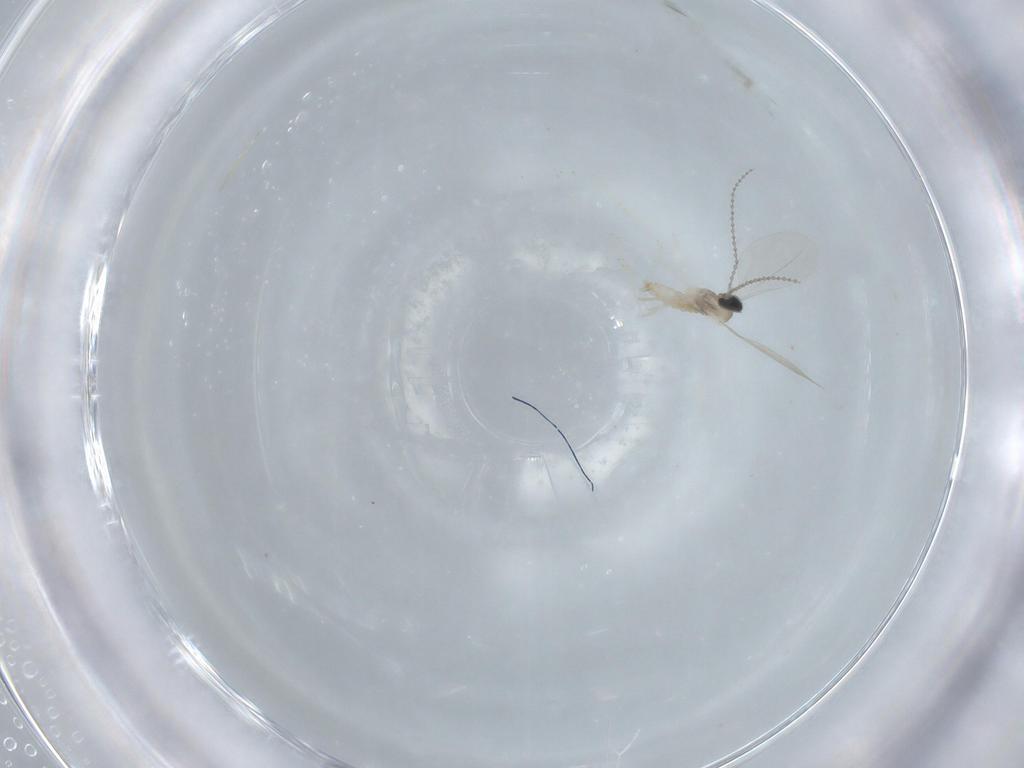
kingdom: Animalia
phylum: Arthropoda
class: Insecta
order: Diptera
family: Cecidomyiidae
